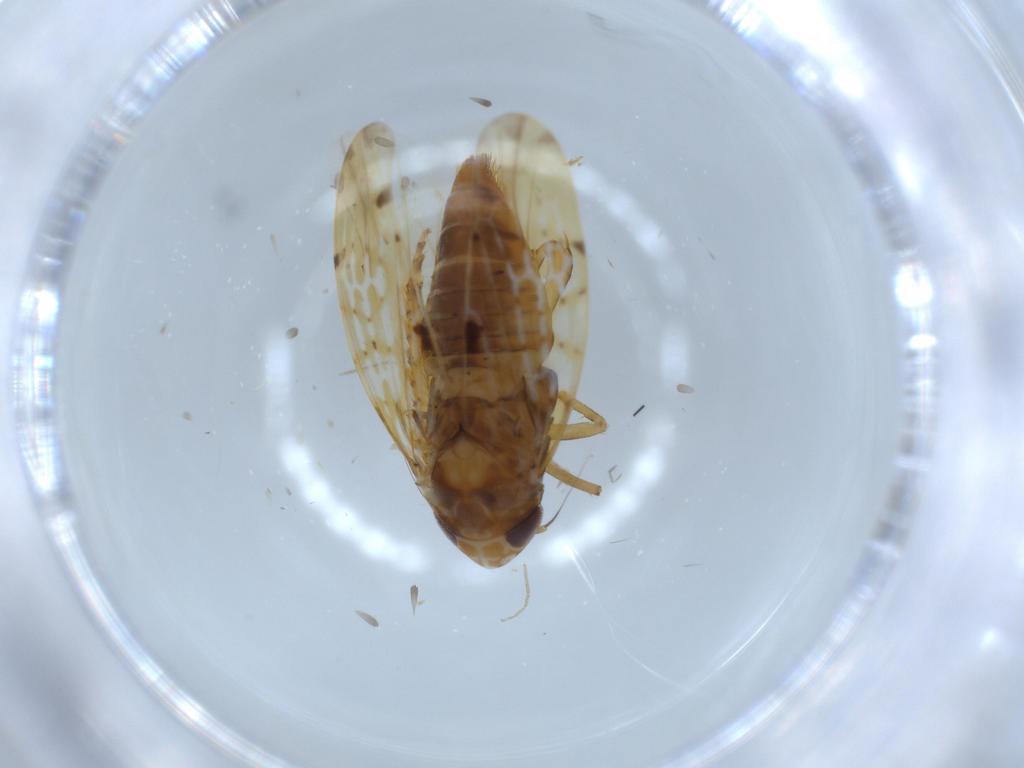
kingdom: Animalia
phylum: Arthropoda
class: Insecta
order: Hemiptera
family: Cicadellidae
